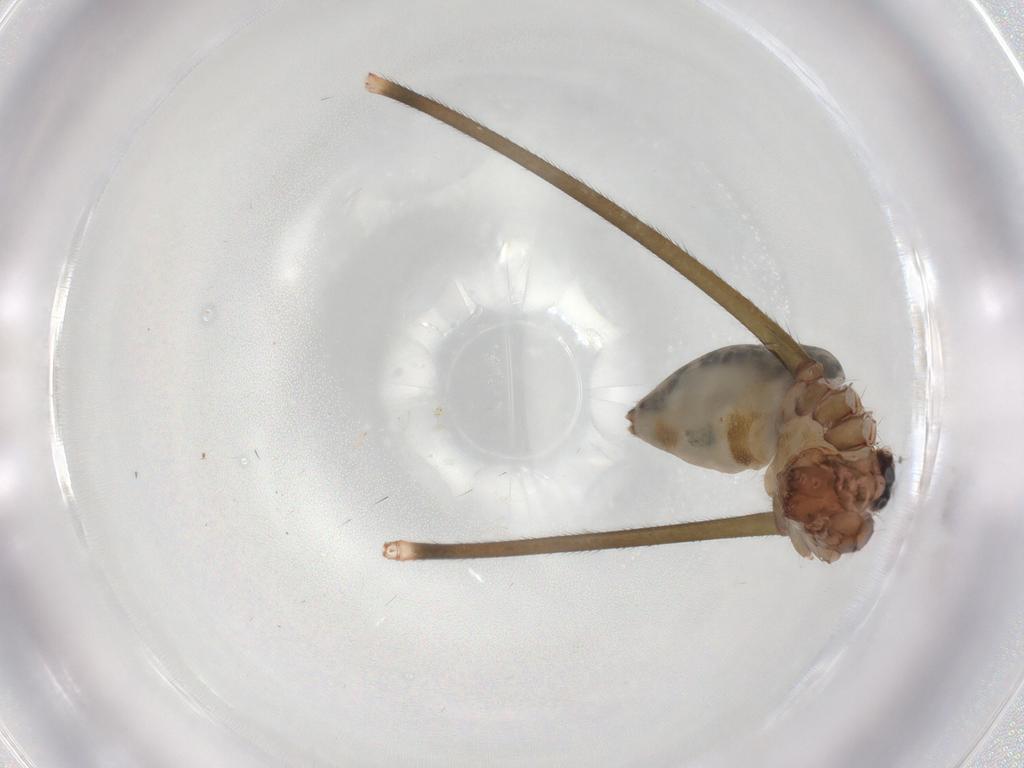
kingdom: Animalia
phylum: Arthropoda
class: Arachnida
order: Araneae
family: Pholcidae
